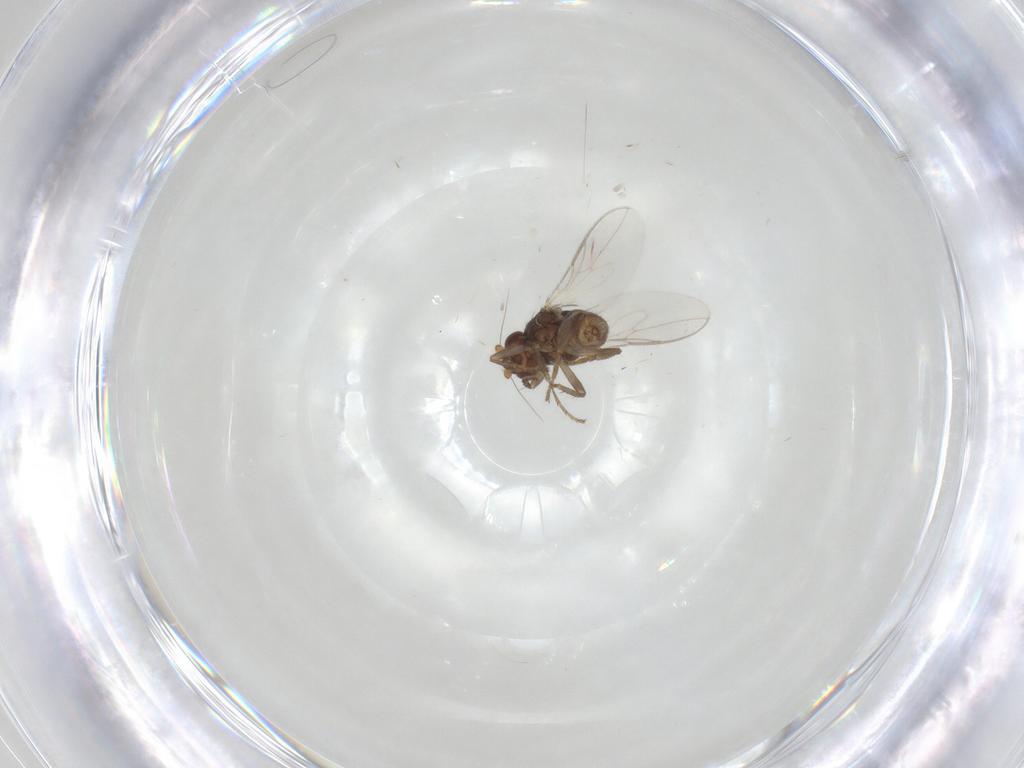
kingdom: Animalia
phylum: Arthropoda
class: Insecta
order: Diptera
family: Sphaeroceridae
